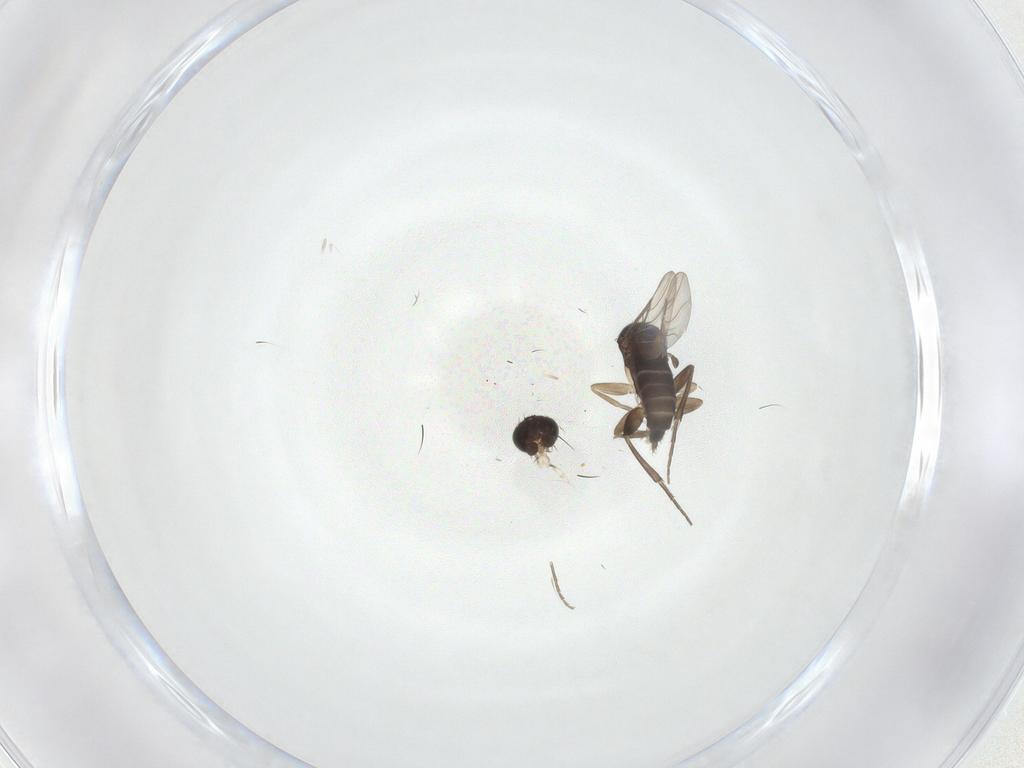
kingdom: Animalia
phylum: Arthropoda
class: Insecta
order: Diptera
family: Phoridae
